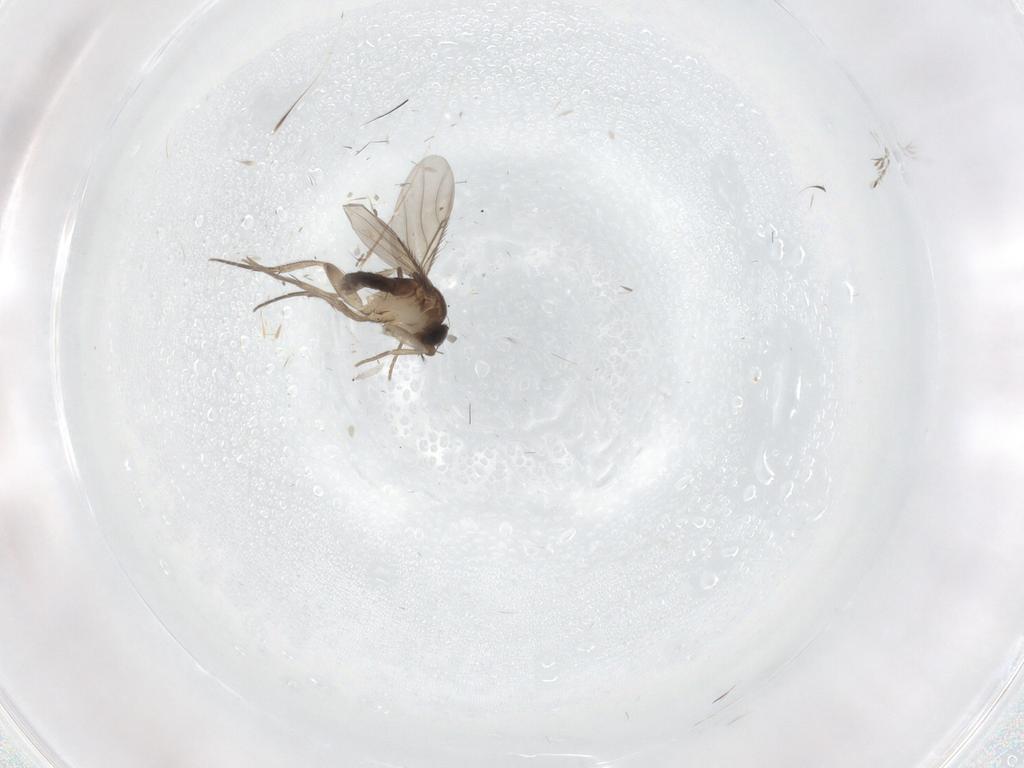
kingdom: Animalia
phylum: Arthropoda
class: Insecta
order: Diptera
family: Phoridae
